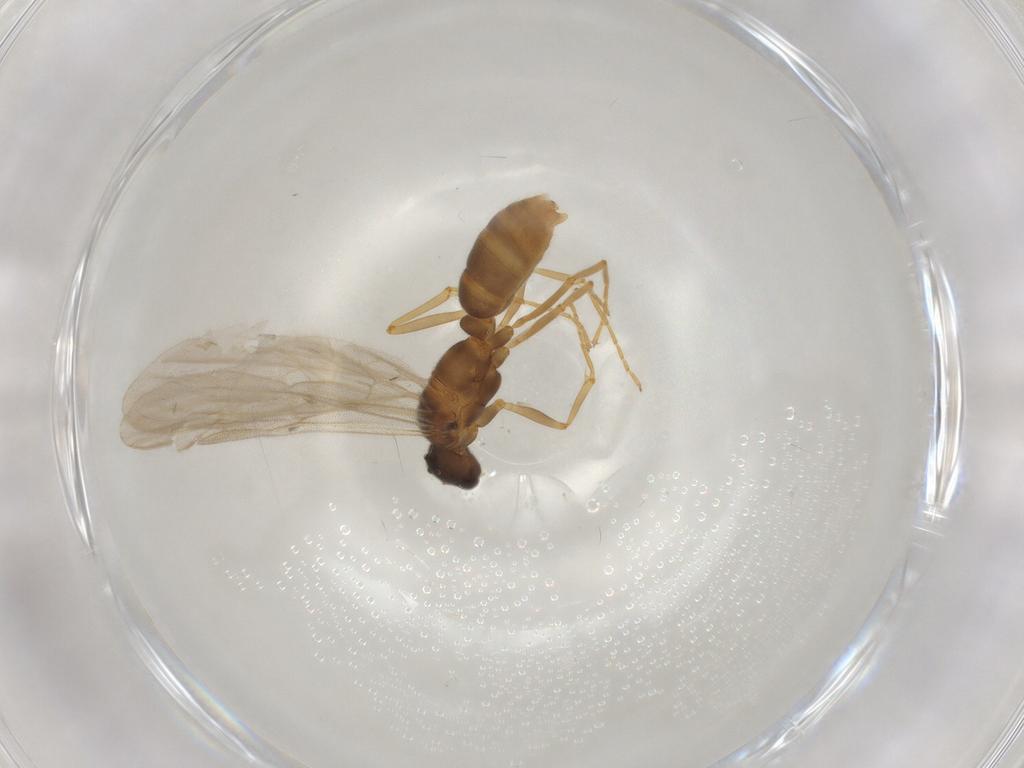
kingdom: Animalia
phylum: Arthropoda
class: Insecta
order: Hymenoptera
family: Formicidae
